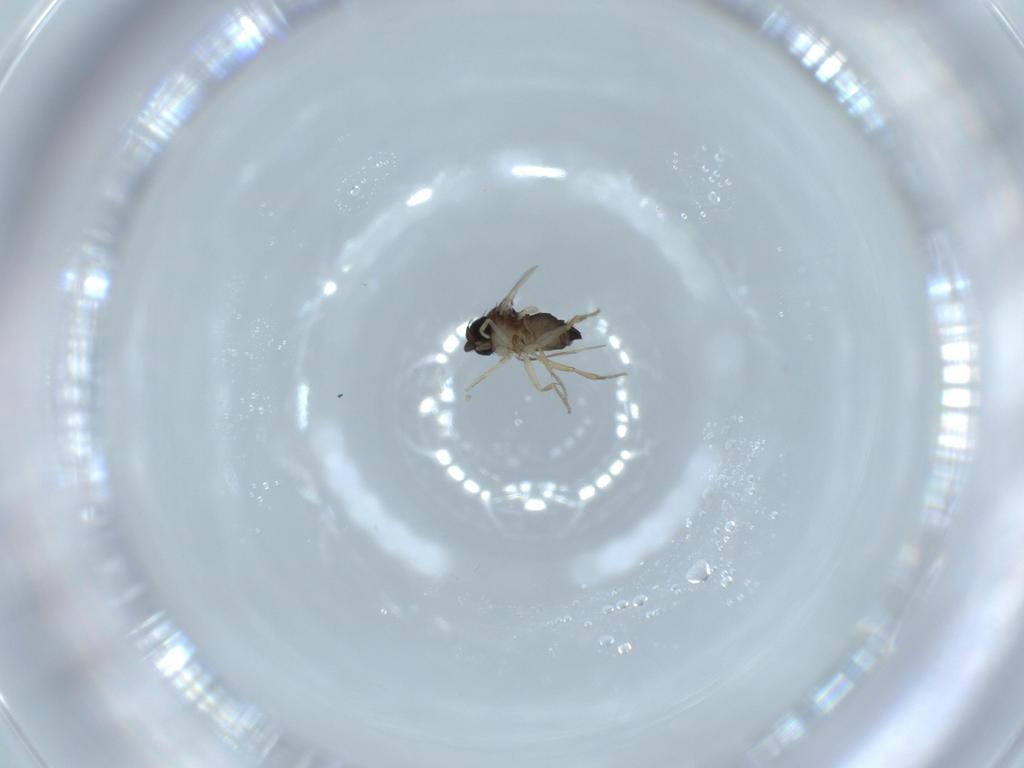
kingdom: Animalia
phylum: Arthropoda
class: Insecta
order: Diptera
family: Phoridae
